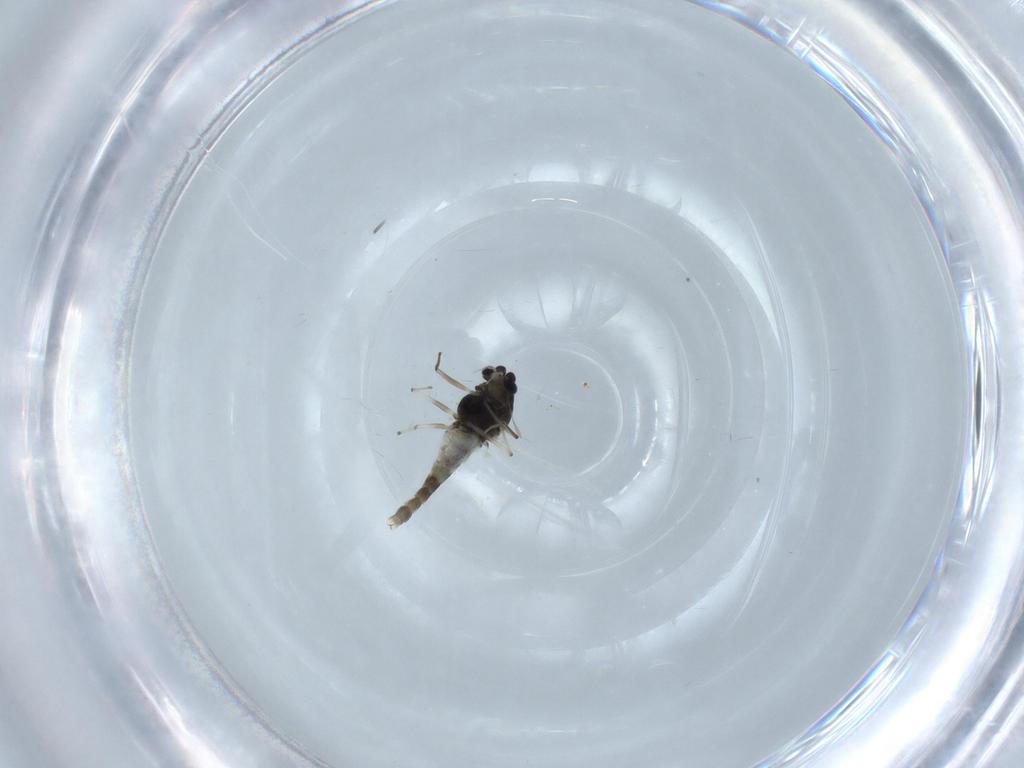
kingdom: Animalia
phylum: Arthropoda
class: Insecta
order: Diptera
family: Chironomidae
